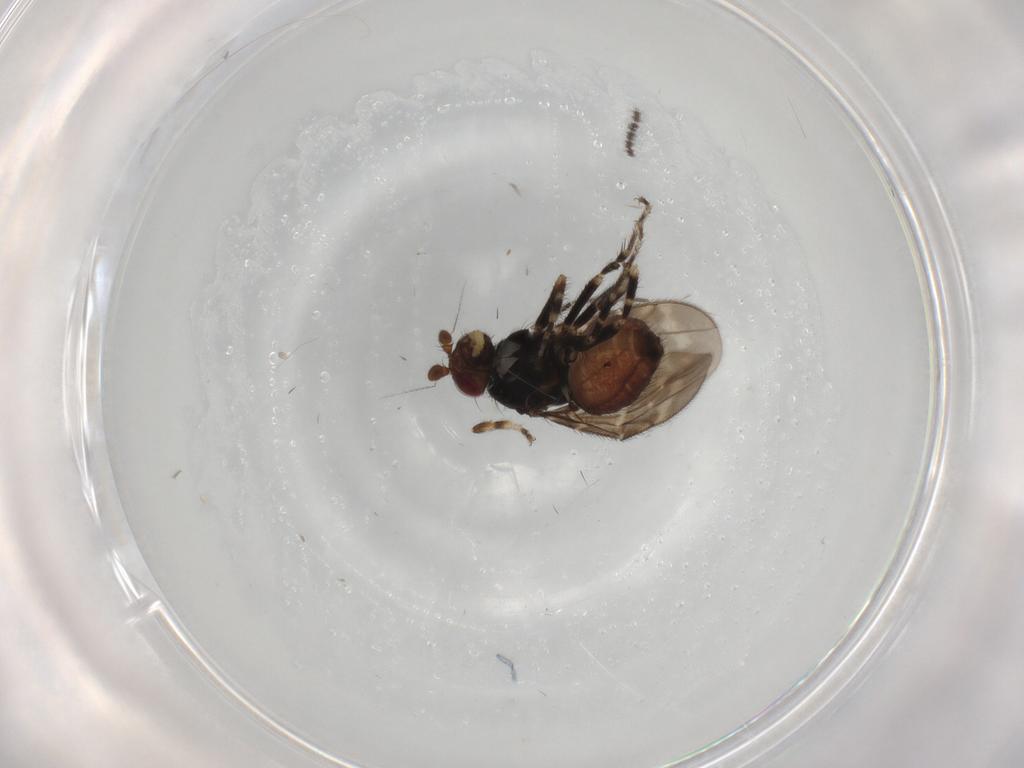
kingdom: Animalia
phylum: Arthropoda
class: Insecta
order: Diptera
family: Sphaeroceridae
